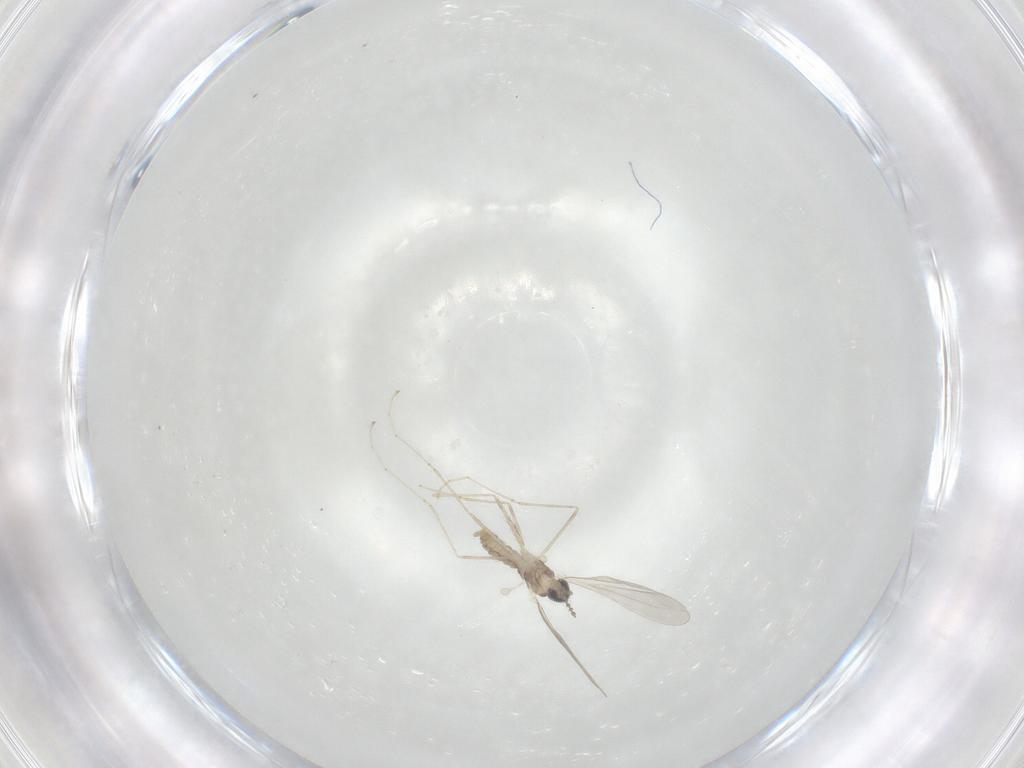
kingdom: Animalia
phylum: Arthropoda
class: Insecta
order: Diptera
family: Cecidomyiidae
